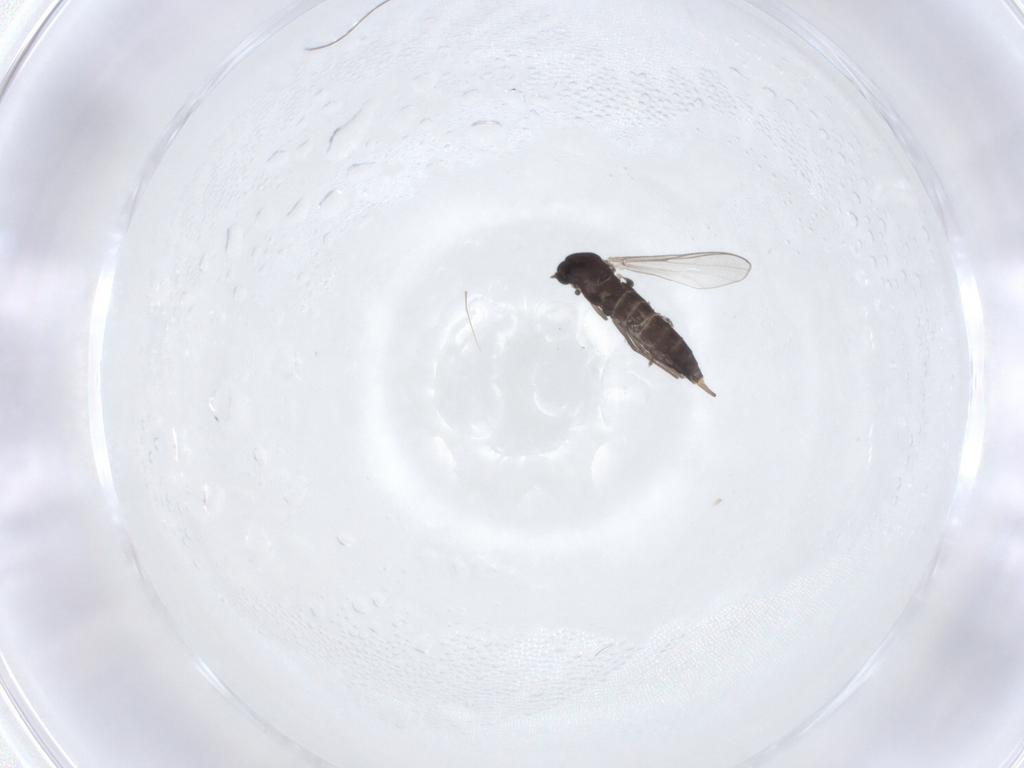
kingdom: Animalia
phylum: Arthropoda
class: Insecta
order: Diptera
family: Chironomidae
